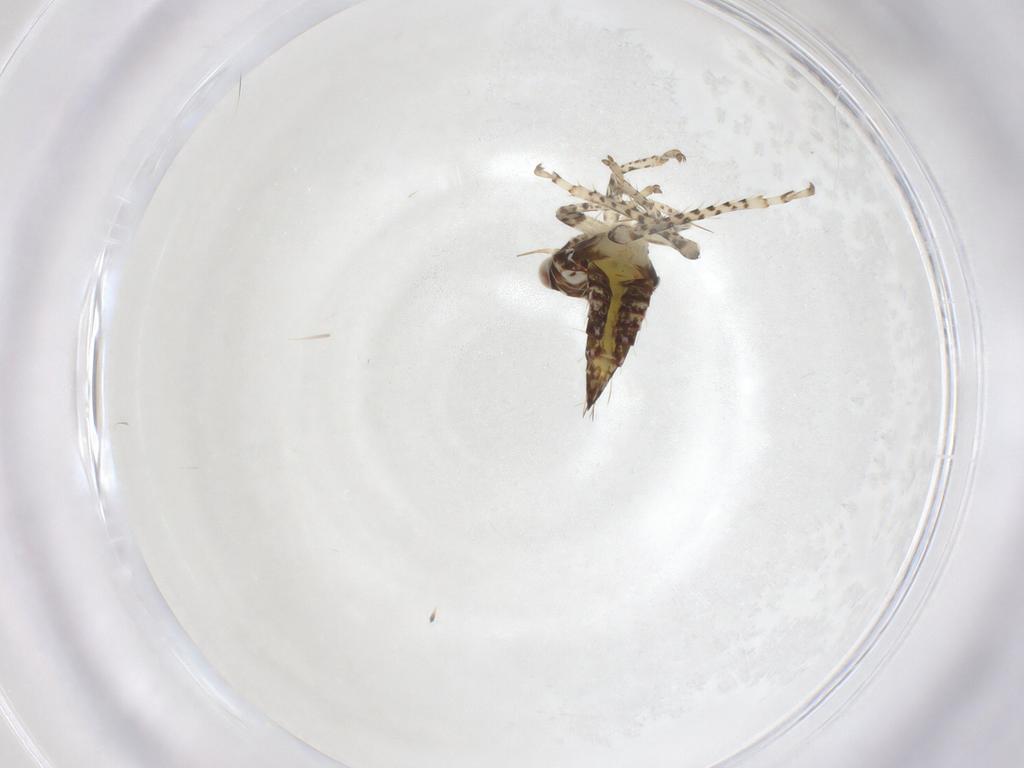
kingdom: Animalia
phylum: Arthropoda
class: Insecta
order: Hemiptera
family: Cicadellidae
